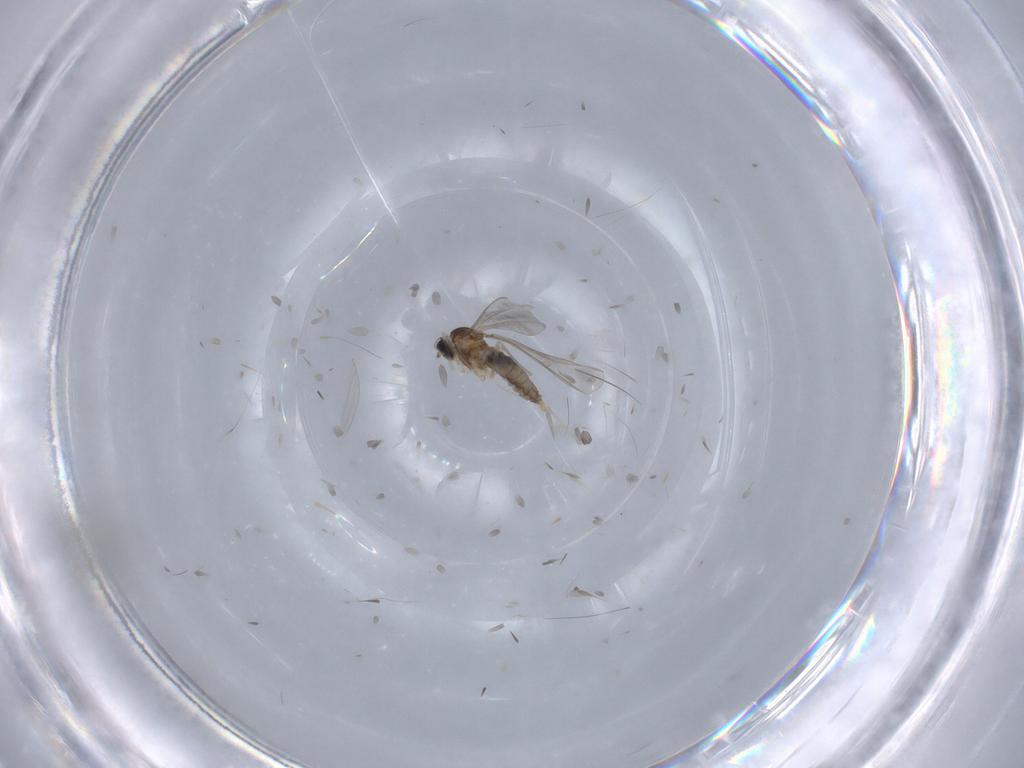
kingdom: Animalia
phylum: Arthropoda
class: Insecta
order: Diptera
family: Cecidomyiidae
